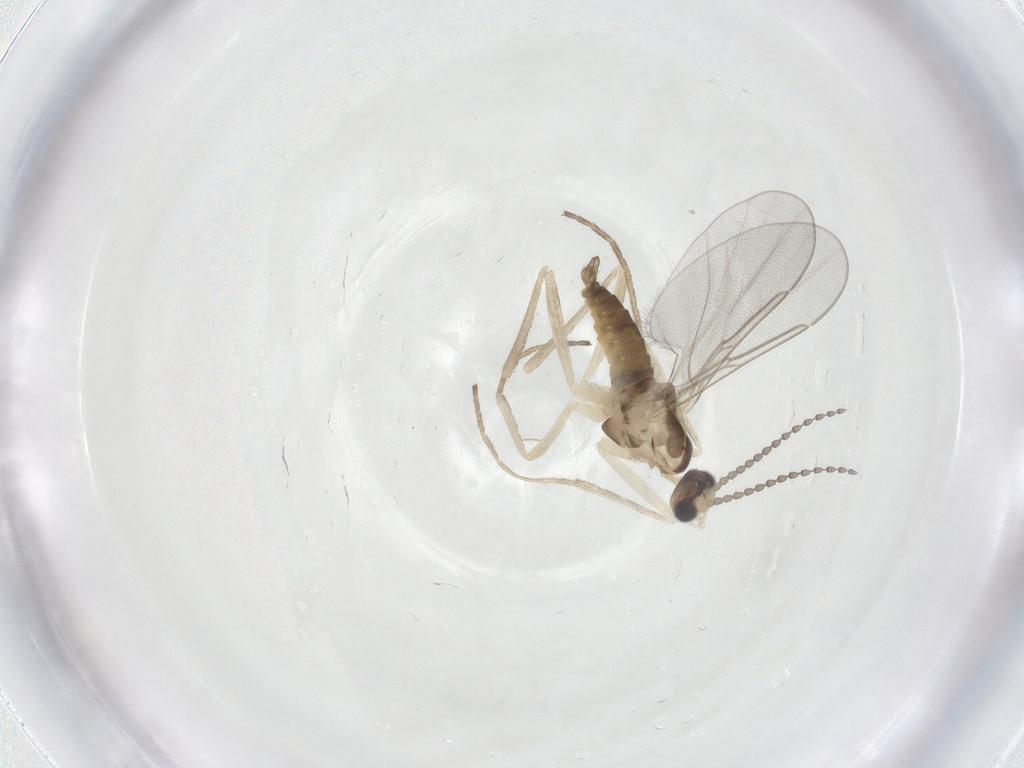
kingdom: Animalia
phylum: Arthropoda
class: Insecta
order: Diptera
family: Cecidomyiidae
